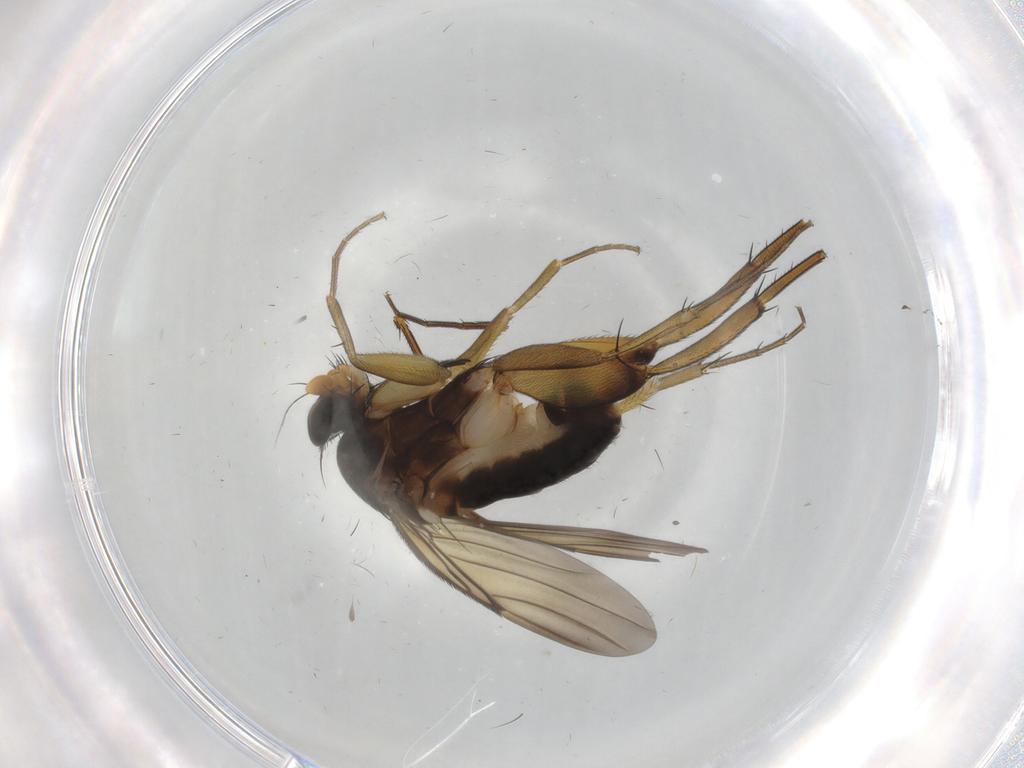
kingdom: Animalia
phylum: Arthropoda
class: Insecta
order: Diptera
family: Phoridae
